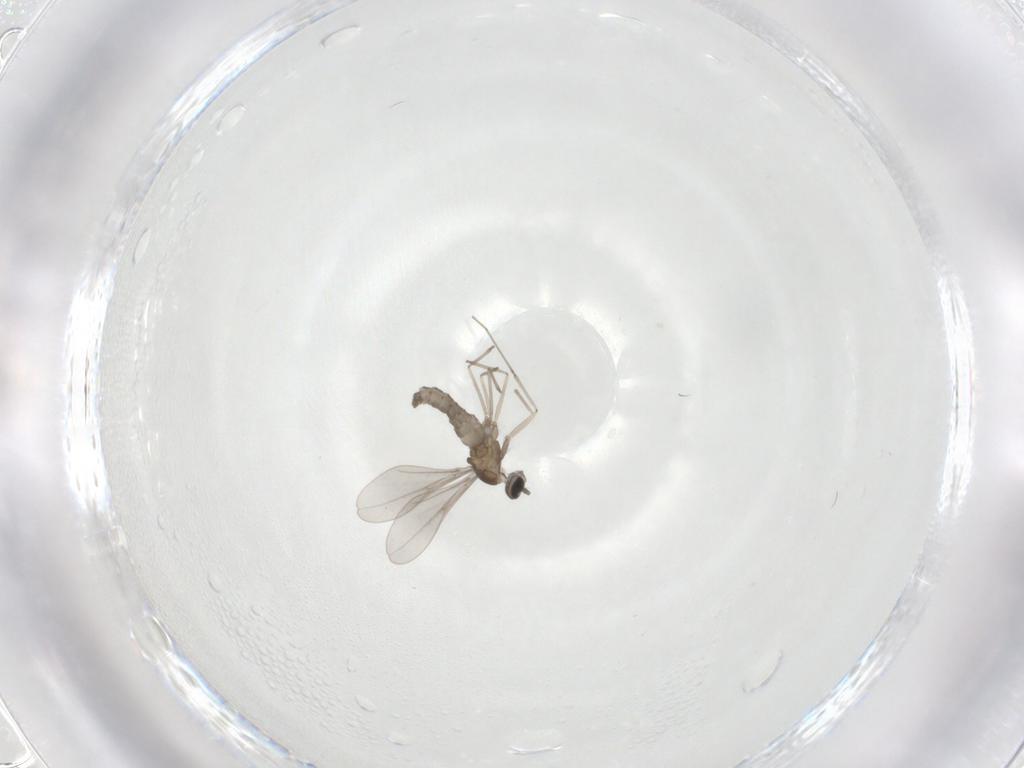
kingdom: Animalia
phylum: Arthropoda
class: Insecta
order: Diptera
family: Cecidomyiidae
